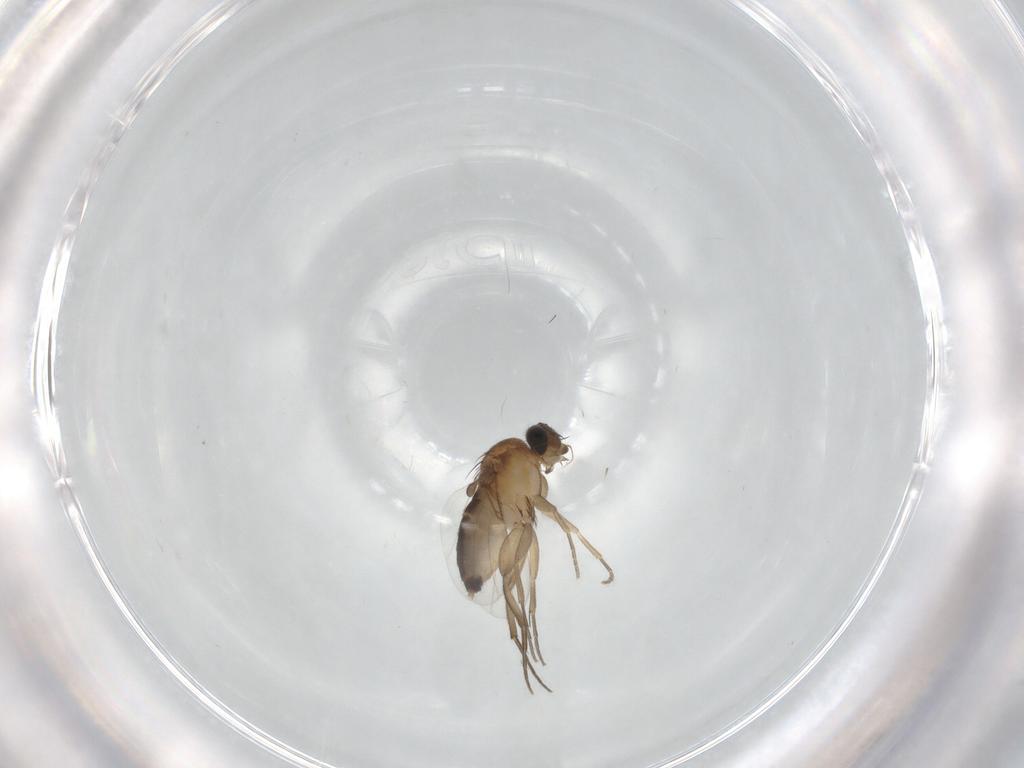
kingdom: Animalia
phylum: Arthropoda
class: Insecta
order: Diptera
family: Phoridae
